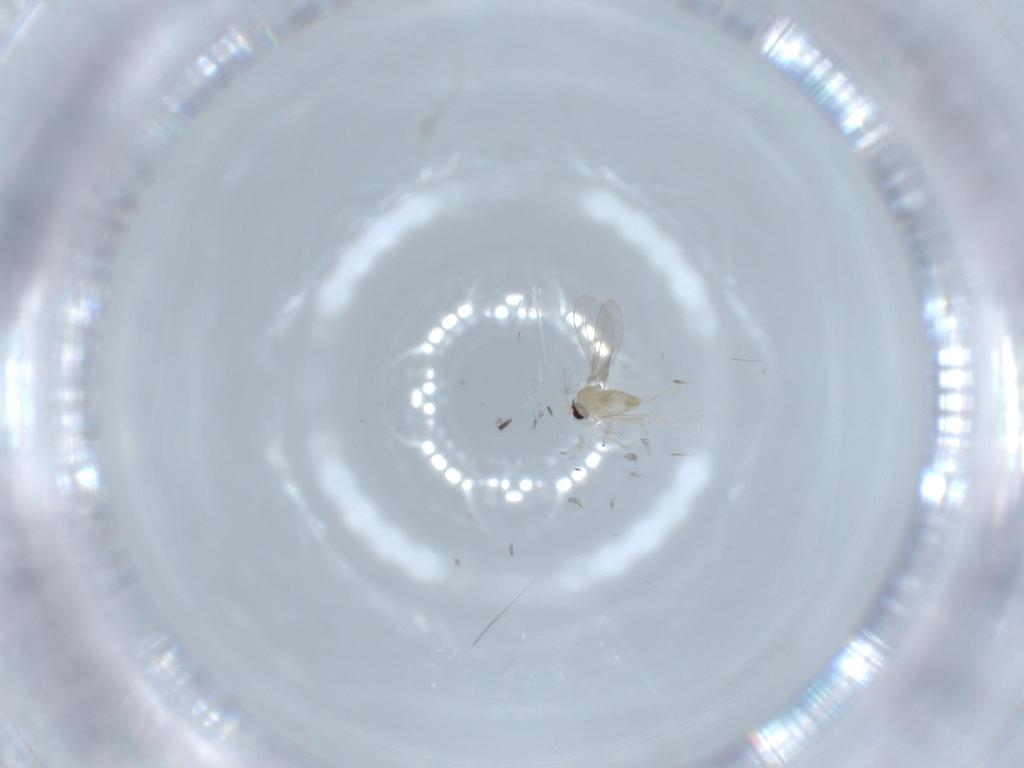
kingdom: Animalia
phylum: Arthropoda
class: Insecta
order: Diptera
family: Cecidomyiidae
